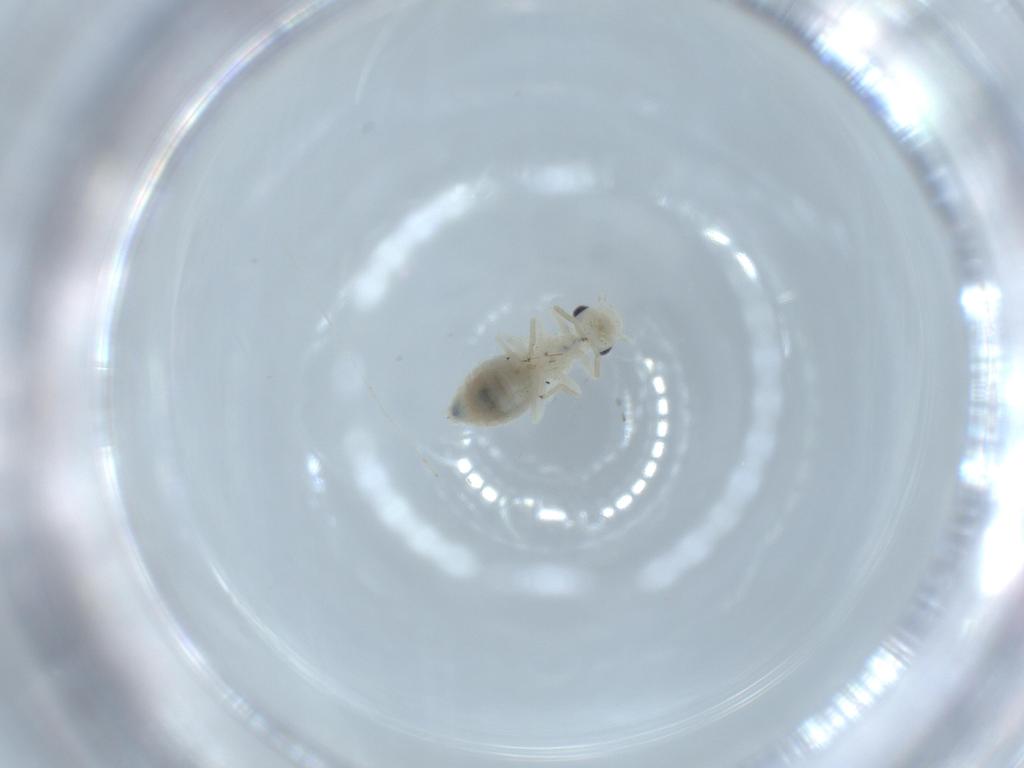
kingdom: Animalia
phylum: Arthropoda
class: Insecta
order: Psocodea
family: Caeciliusidae
